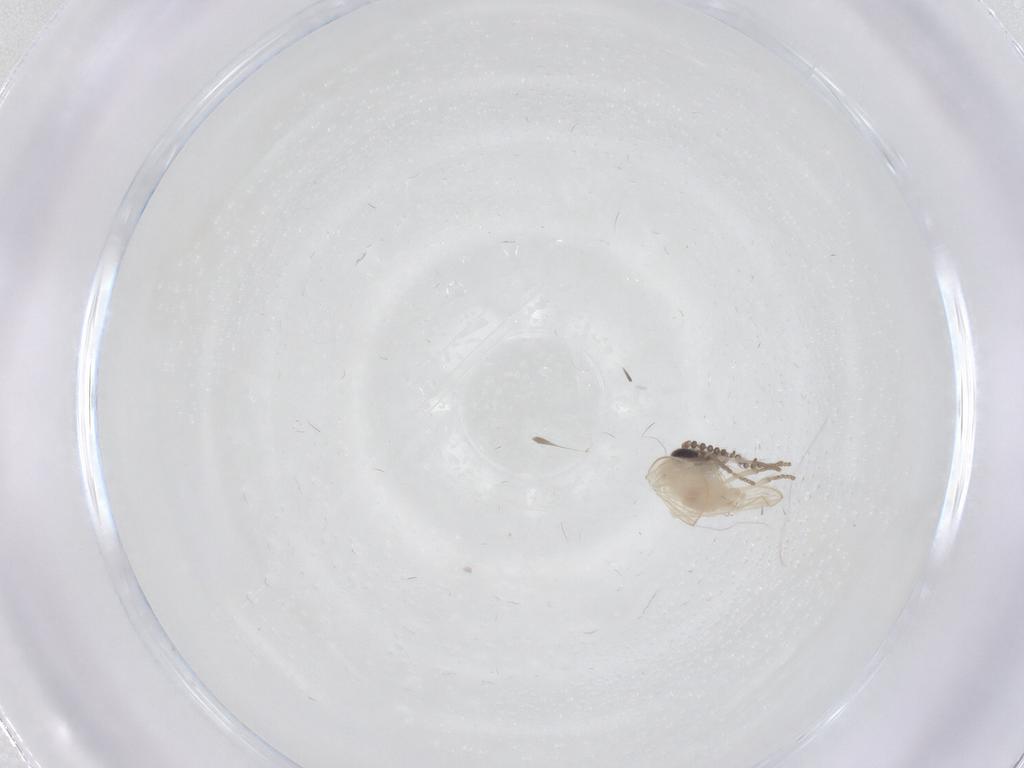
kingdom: Animalia
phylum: Arthropoda
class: Insecta
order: Diptera
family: Psychodidae
